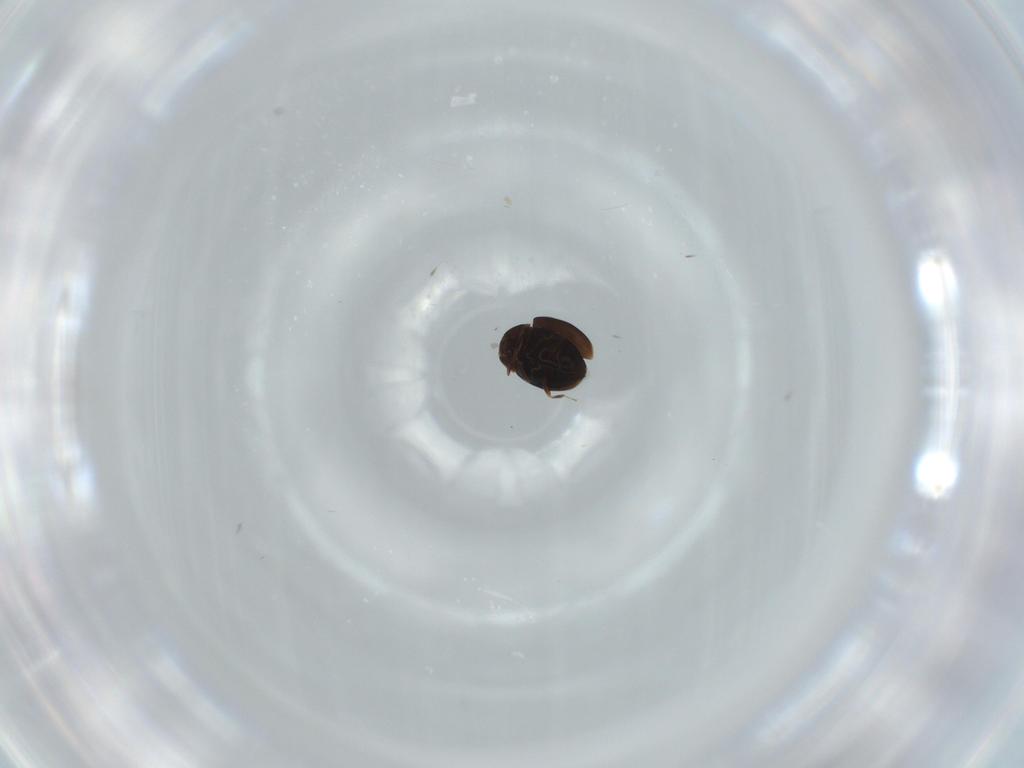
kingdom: Animalia
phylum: Arthropoda
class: Insecta
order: Coleoptera
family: Corylophidae
